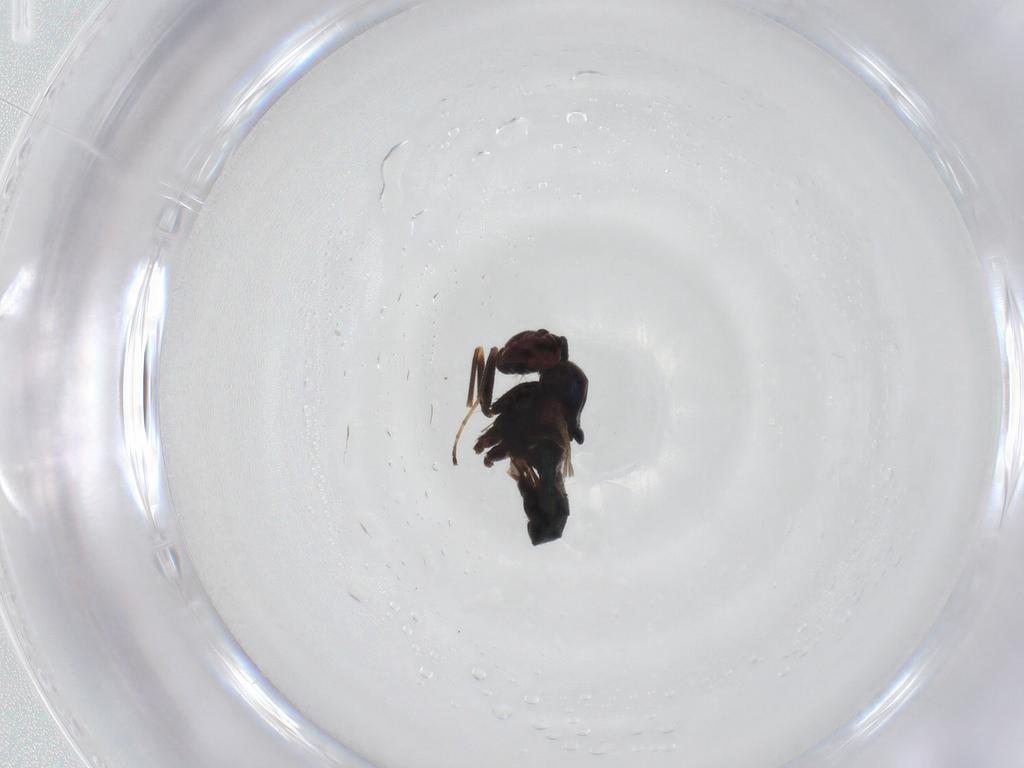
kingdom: Animalia
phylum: Arthropoda
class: Insecta
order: Diptera
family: Dolichopodidae
